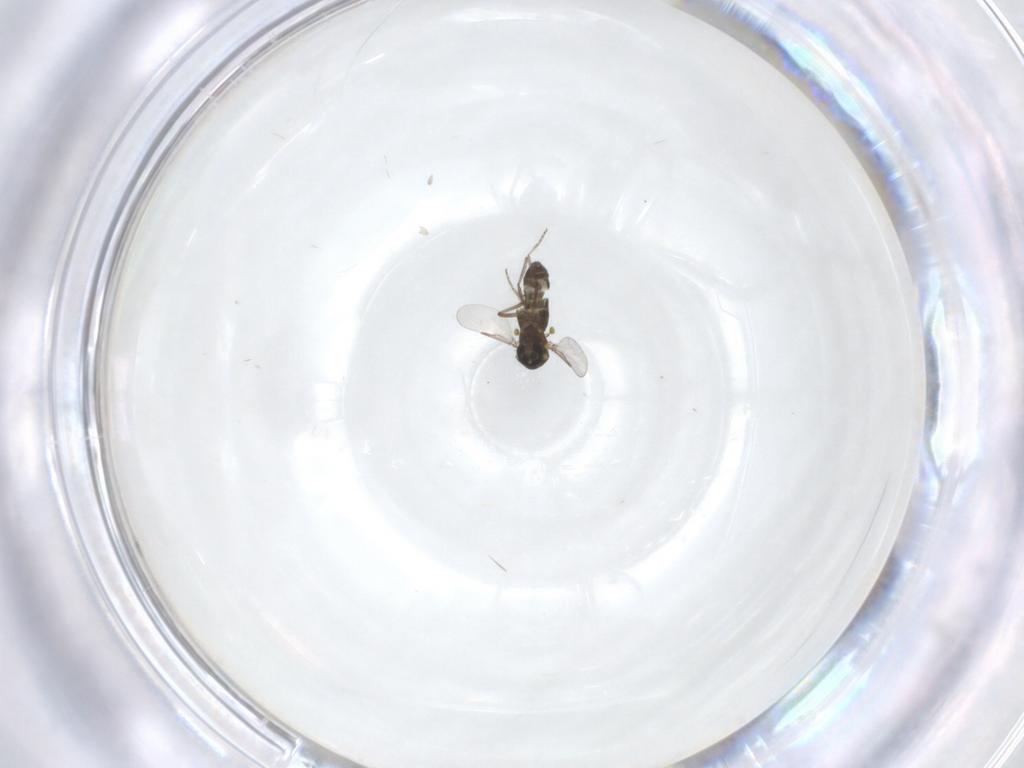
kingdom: Animalia
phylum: Arthropoda
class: Insecta
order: Diptera
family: Ceratopogonidae
